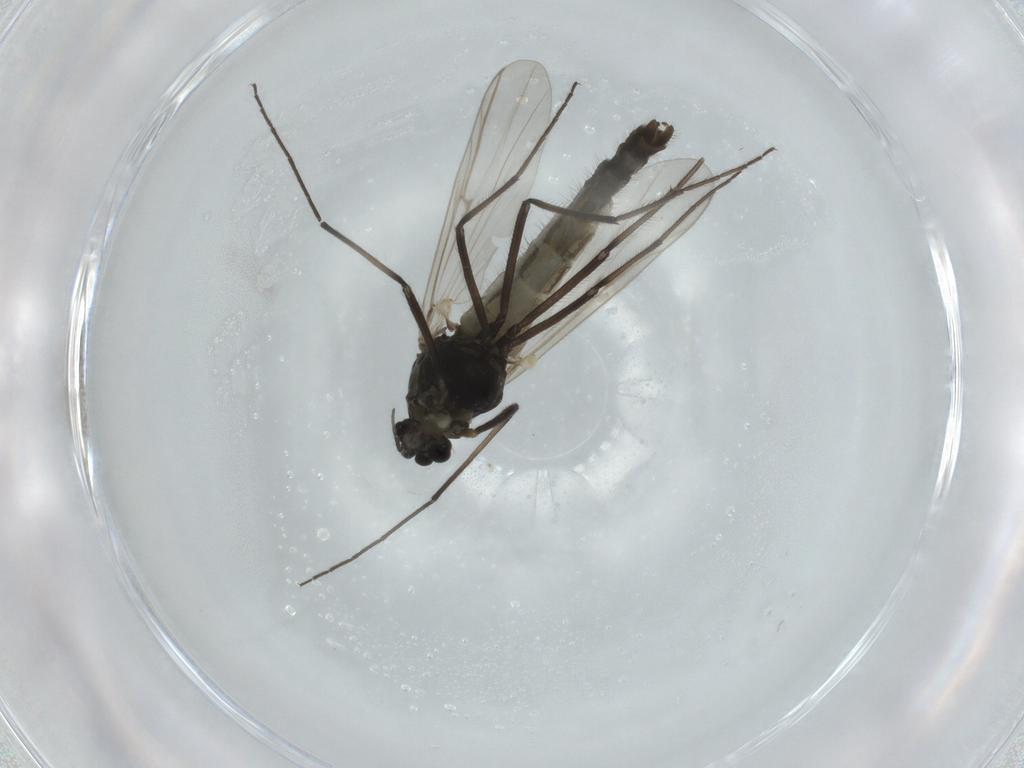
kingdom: Animalia
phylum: Arthropoda
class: Insecta
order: Diptera
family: Chironomidae
